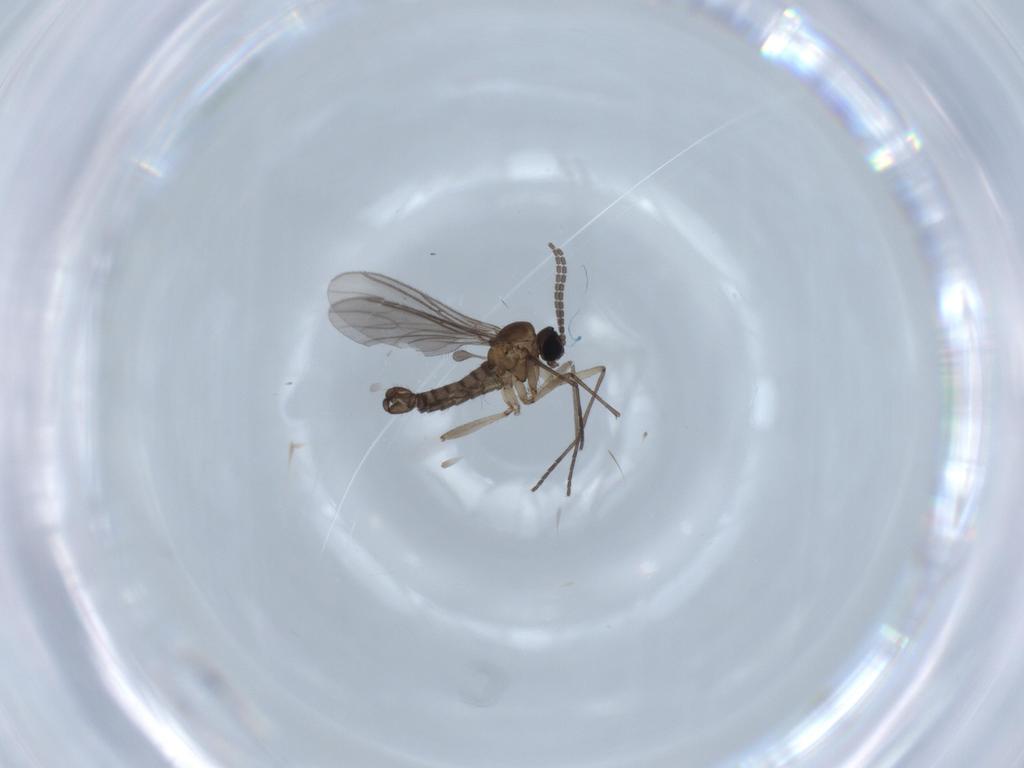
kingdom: Animalia
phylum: Arthropoda
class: Insecta
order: Diptera
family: Sciaridae
